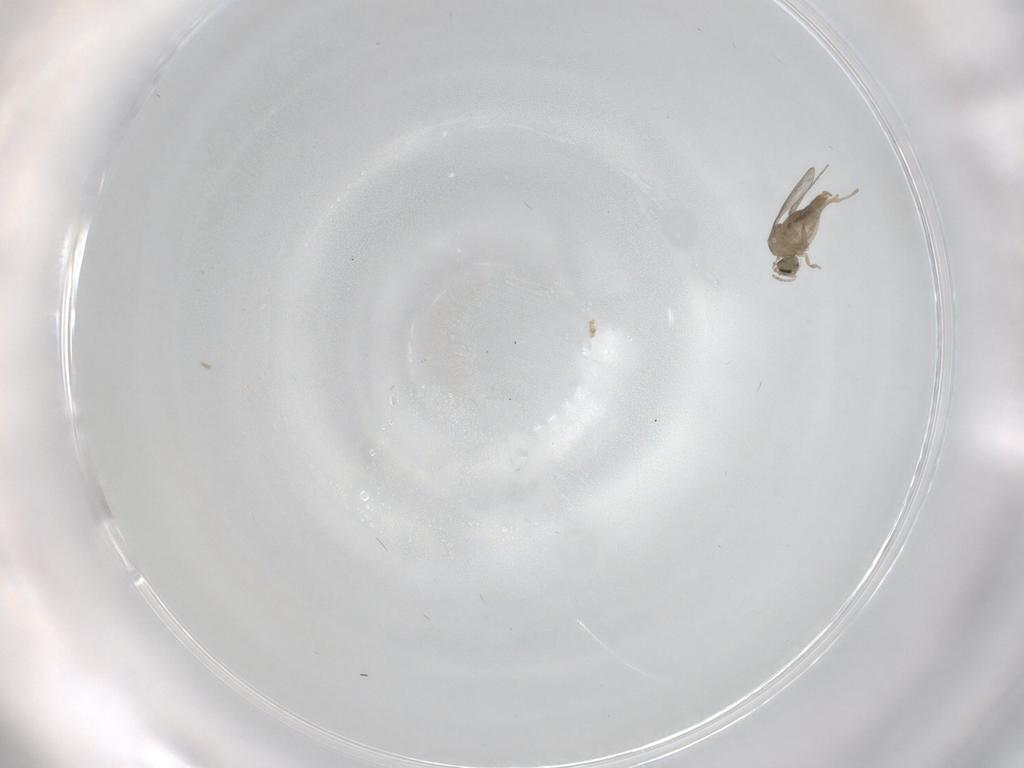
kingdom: Animalia
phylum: Arthropoda
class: Insecta
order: Diptera
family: Cecidomyiidae
